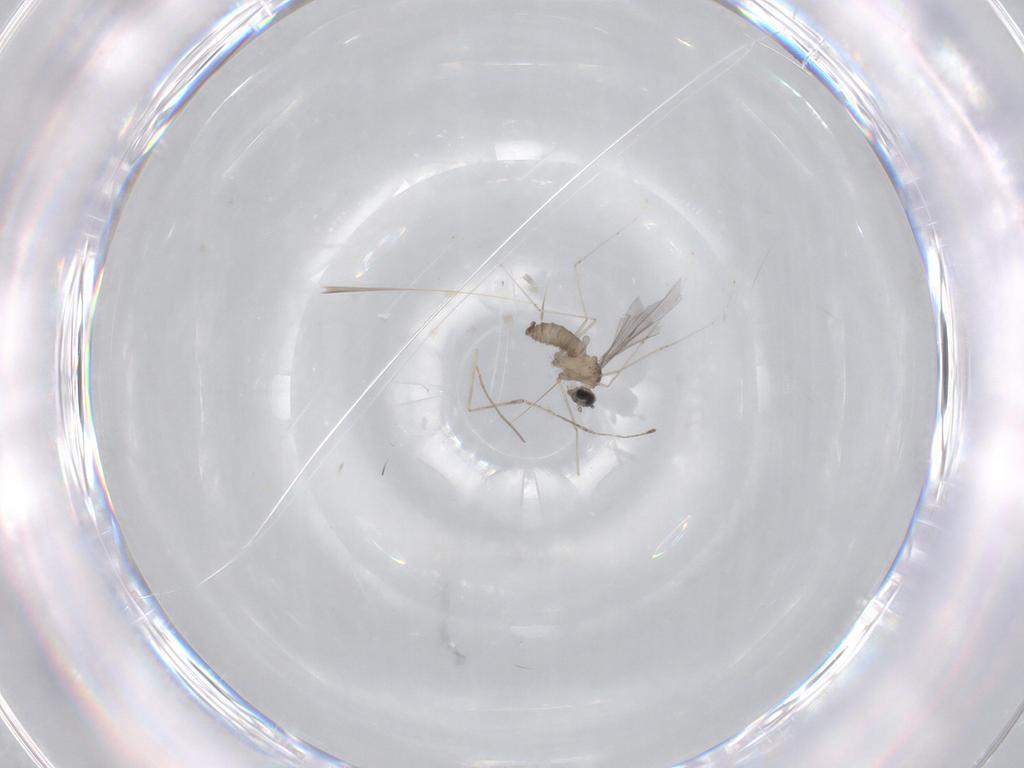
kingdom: Animalia
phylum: Arthropoda
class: Insecta
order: Diptera
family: Cecidomyiidae
